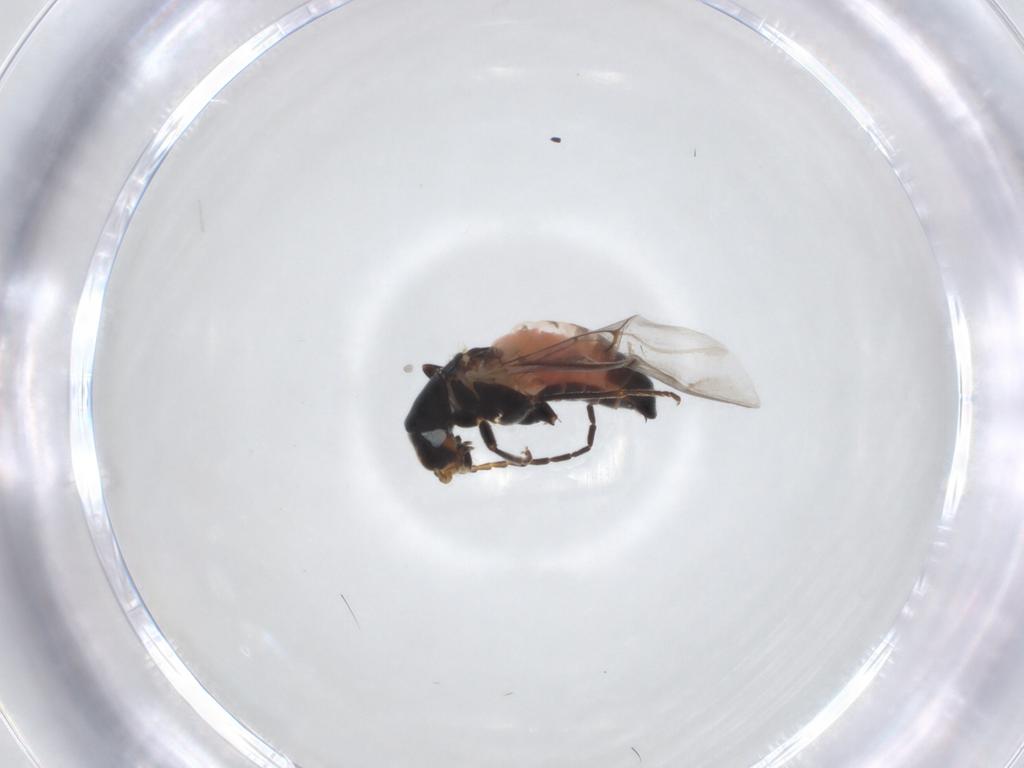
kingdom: Animalia
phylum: Arthropoda
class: Insecta
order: Coleoptera
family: Melyridae
